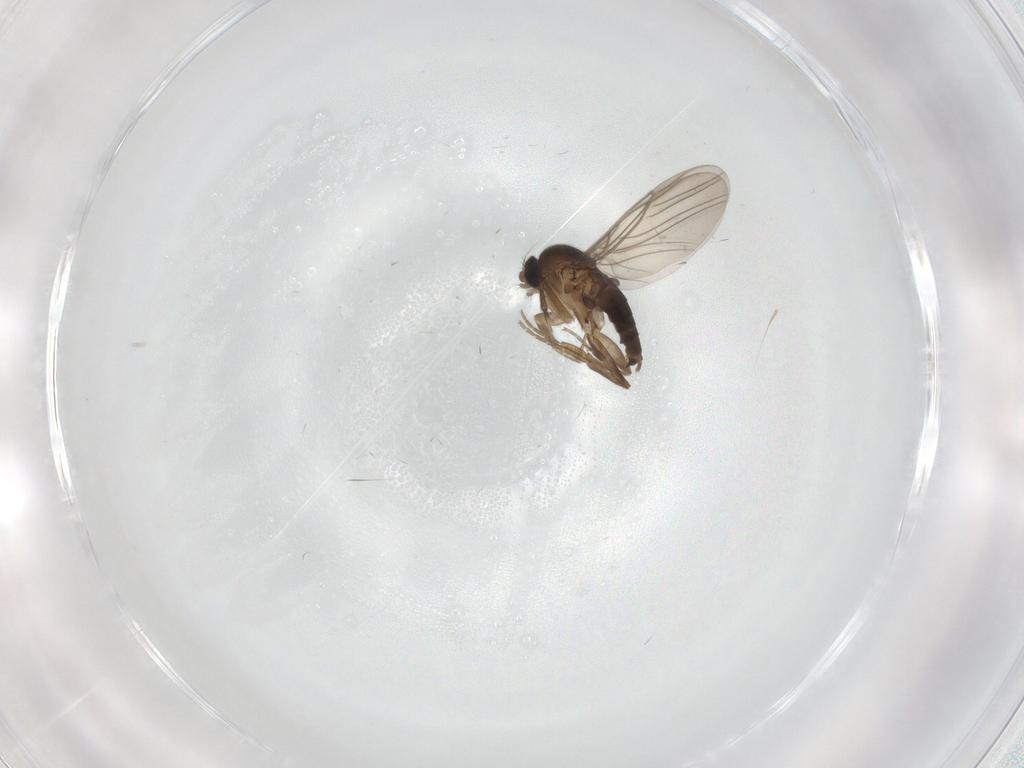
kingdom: Animalia
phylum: Arthropoda
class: Insecta
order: Diptera
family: Phoridae
